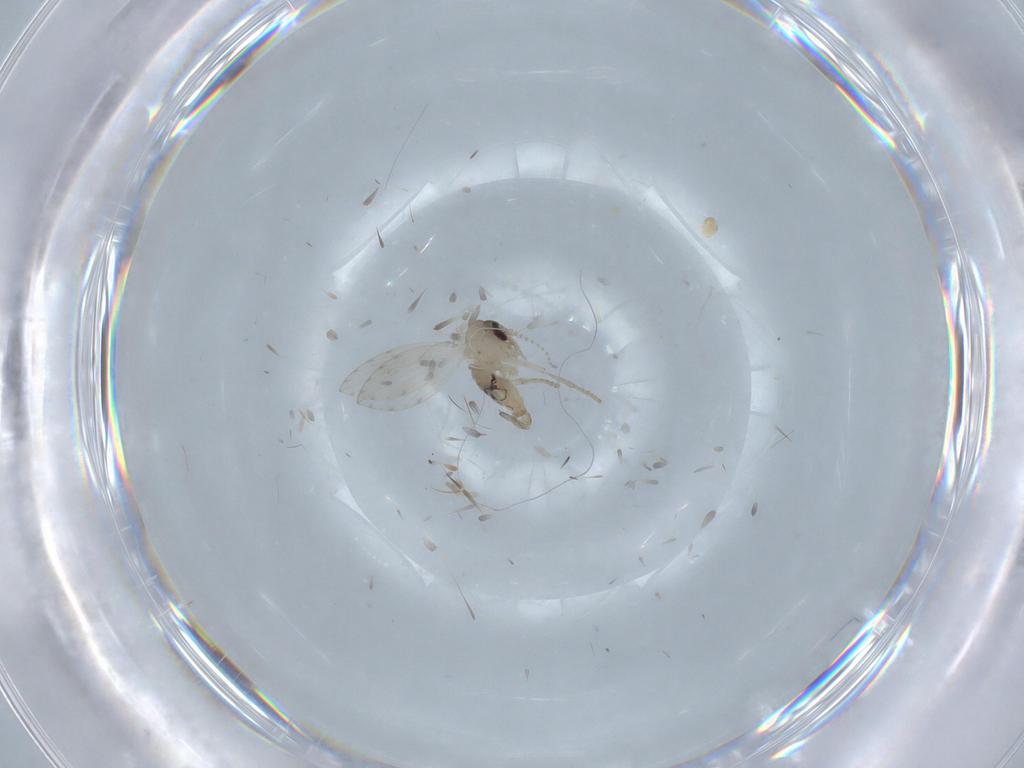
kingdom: Animalia
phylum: Arthropoda
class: Insecta
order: Diptera
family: Psychodidae
